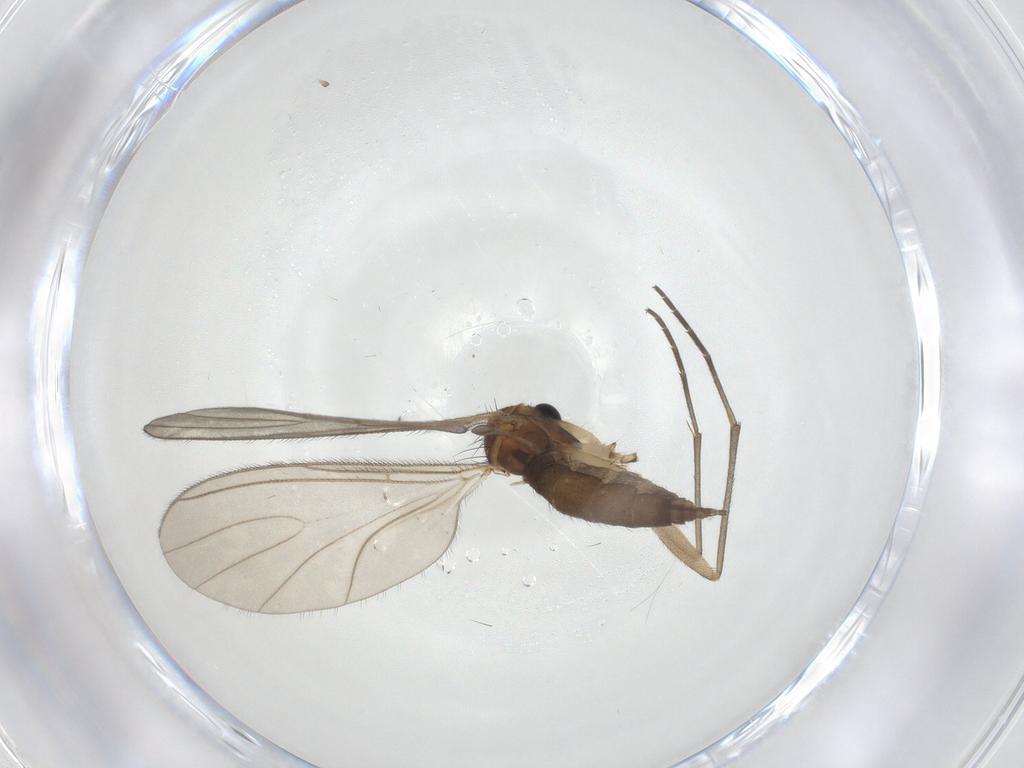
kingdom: Animalia
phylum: Arthropoda
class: Insecta
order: Diptera
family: Sciaridae
